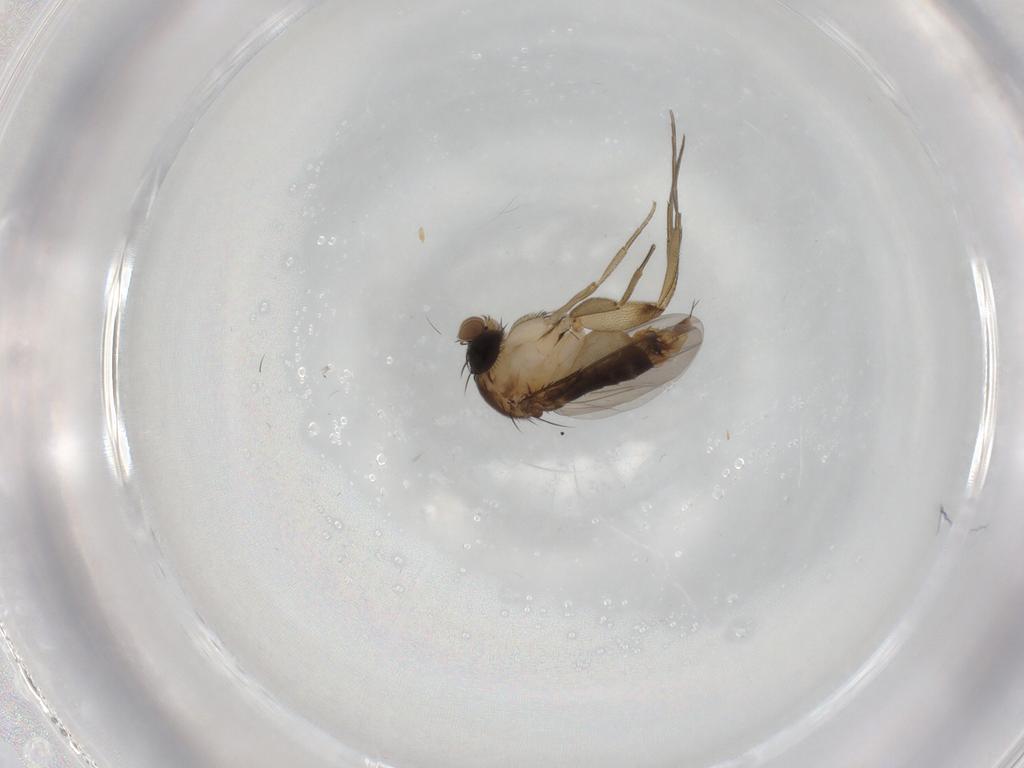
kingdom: Animalia
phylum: Arthropoda
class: Insecta
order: Diptera
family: Phoridae
